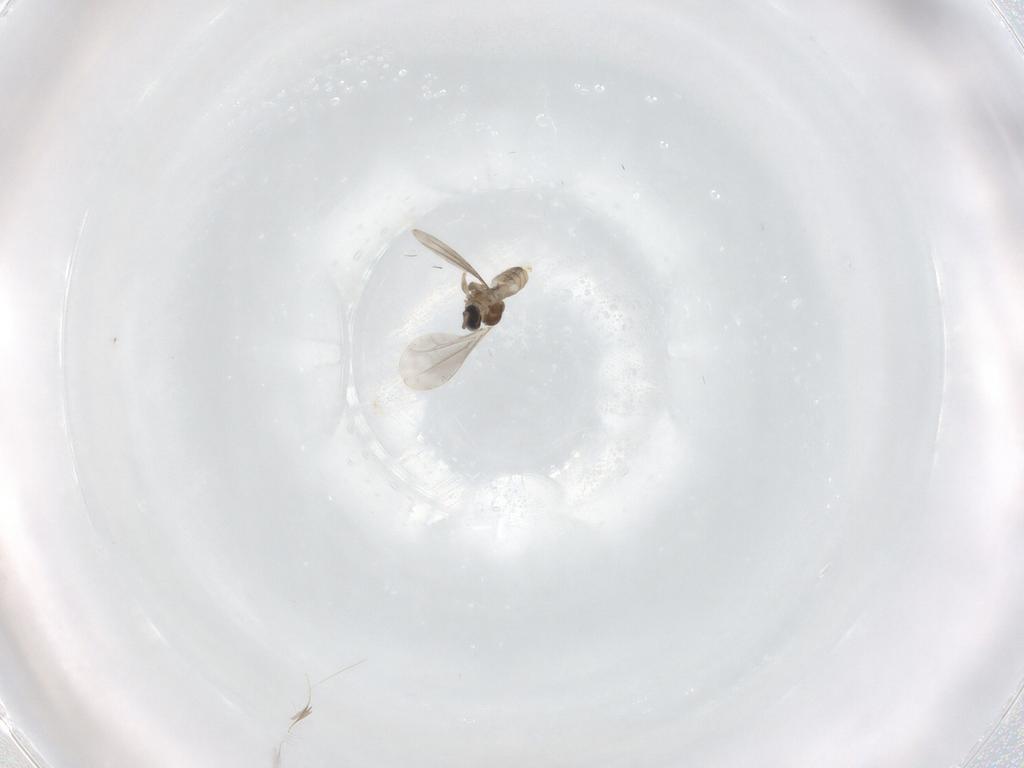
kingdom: Animalia
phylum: Arthropoda
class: Insecta
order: Diptera
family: Cecidomyiidae
